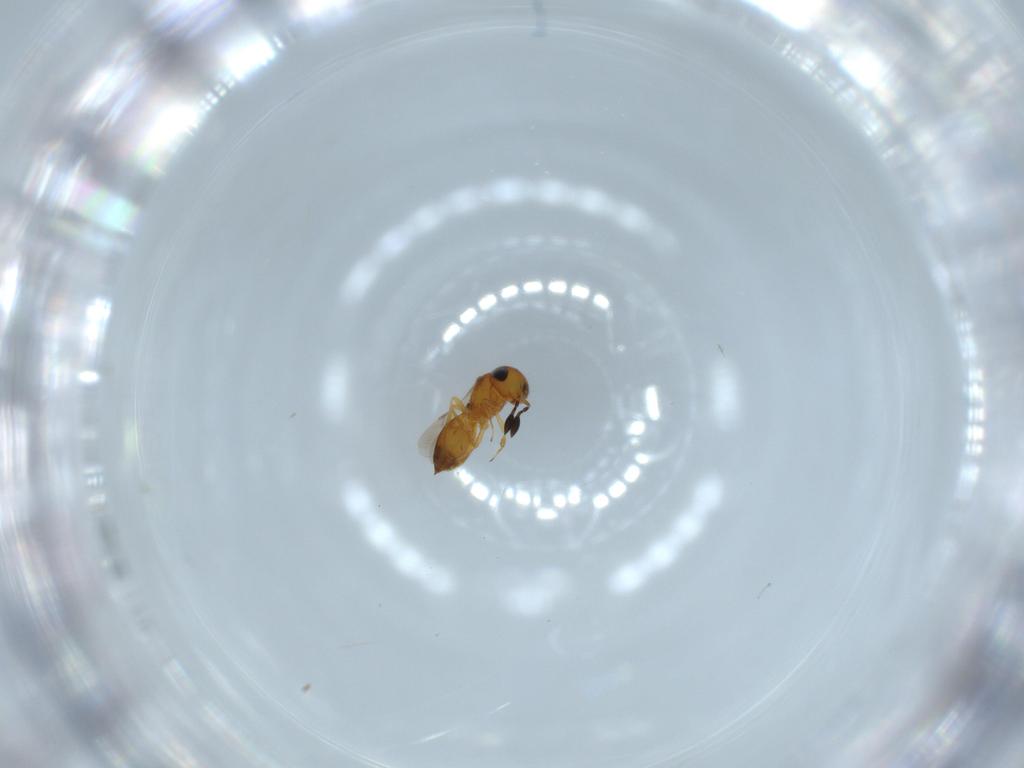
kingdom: Animalia
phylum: Arthropoda
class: Insecta
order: Hymenoptera
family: Scelionidae
